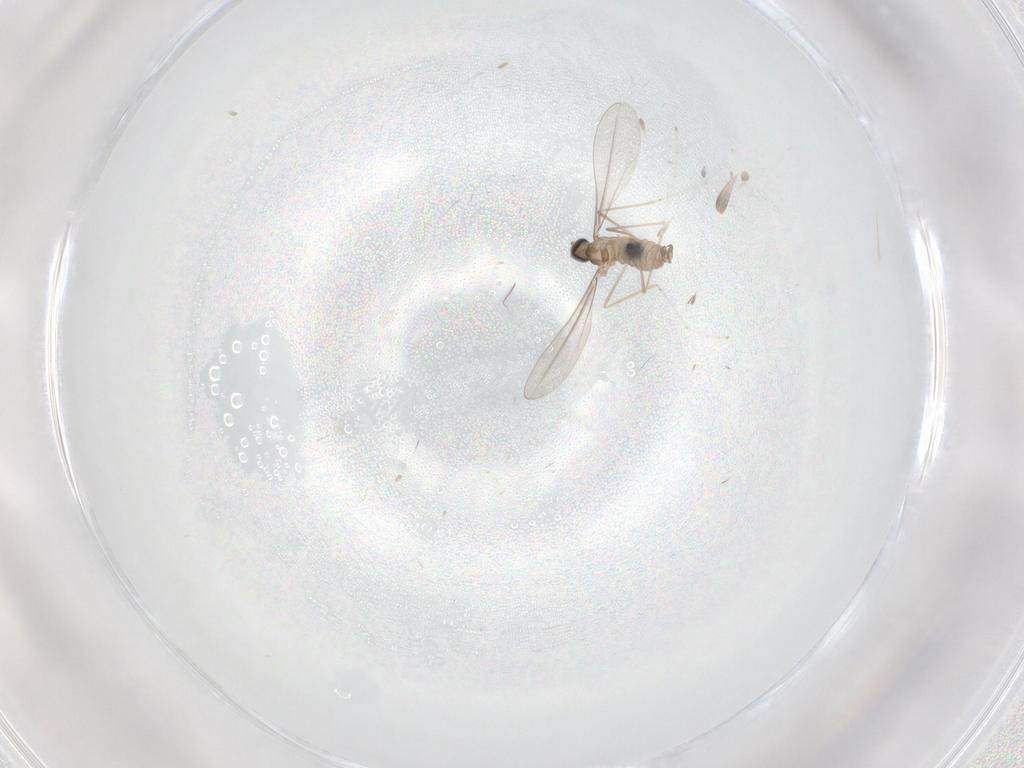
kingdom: Animalia
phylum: Arthropoda
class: Insecta
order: Diptera
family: Cecidomyiidae
